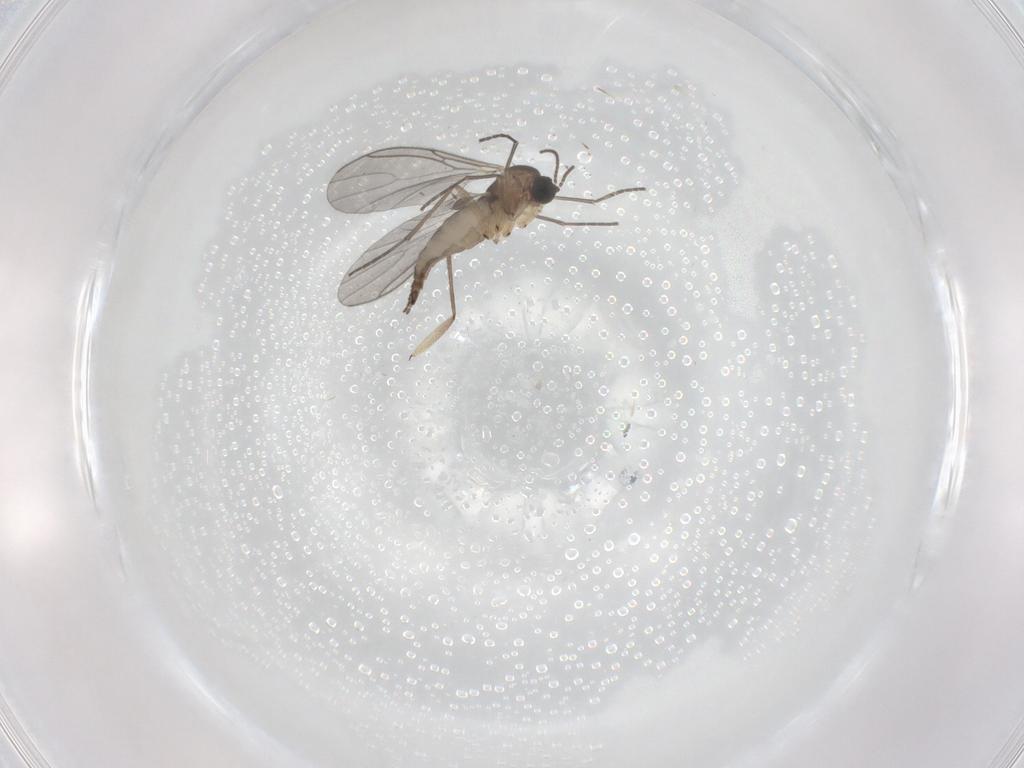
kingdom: Animalia
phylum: Arthropoda
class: Insecta
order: Diptera
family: Sciaridae
